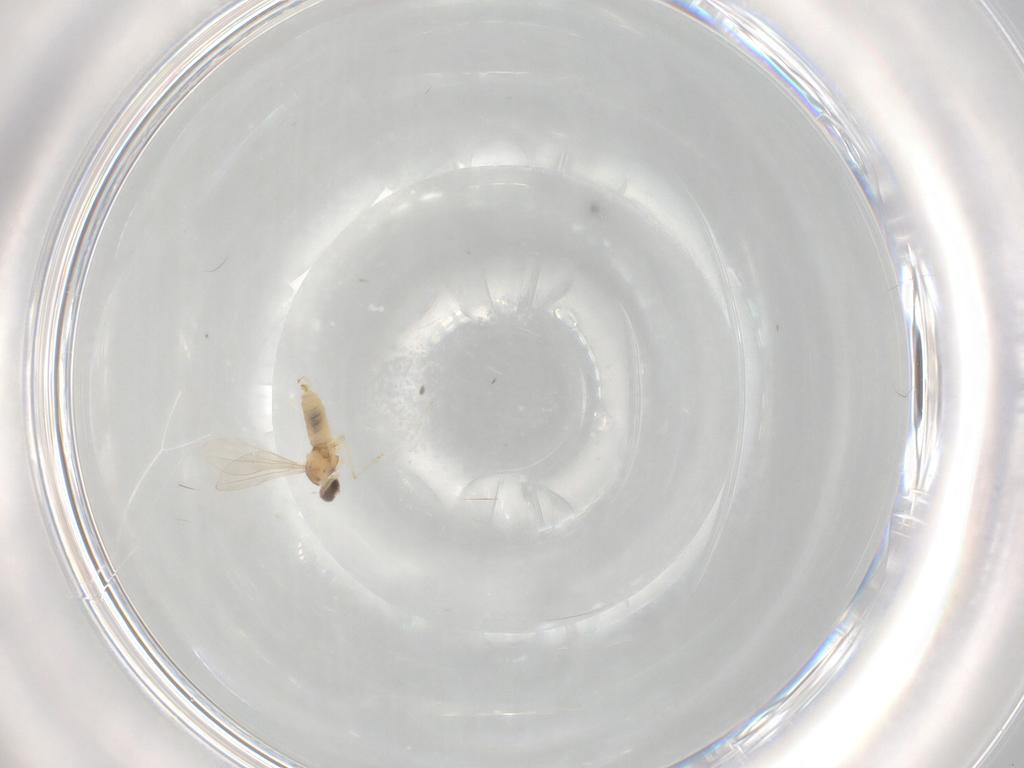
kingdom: Animalia
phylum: Arthropoda
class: Insecta
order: Diptera
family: Cecidomyiidae
